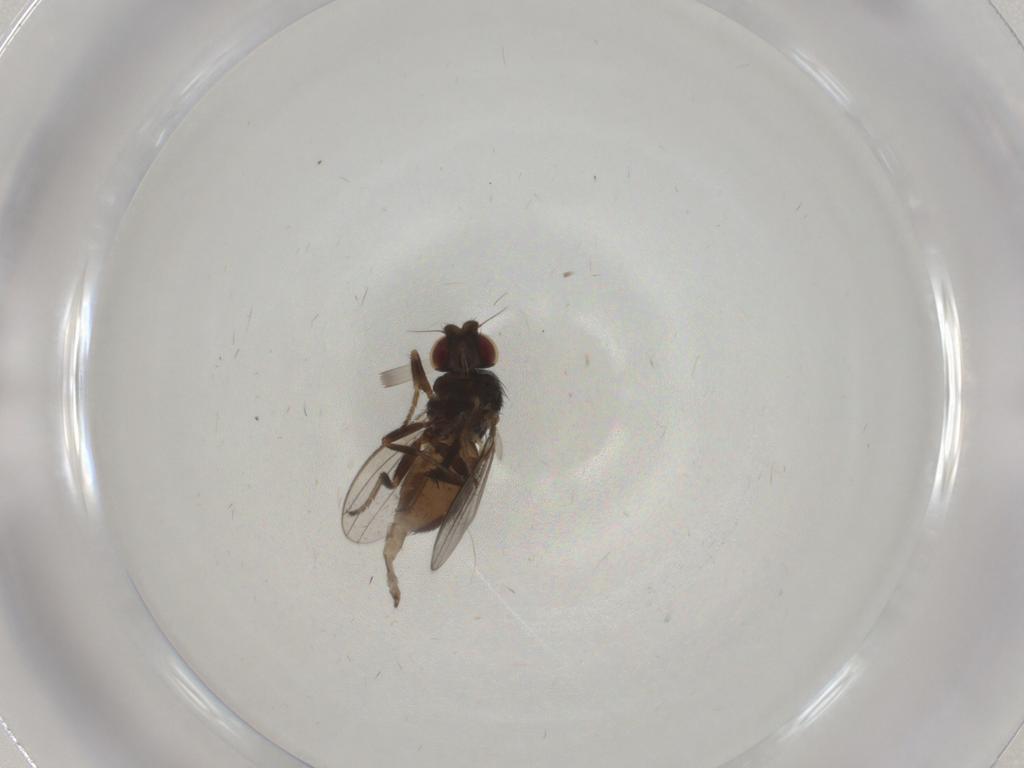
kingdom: Animalia
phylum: Arthropoda
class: Insecta
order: Diptera
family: Milichiidae
